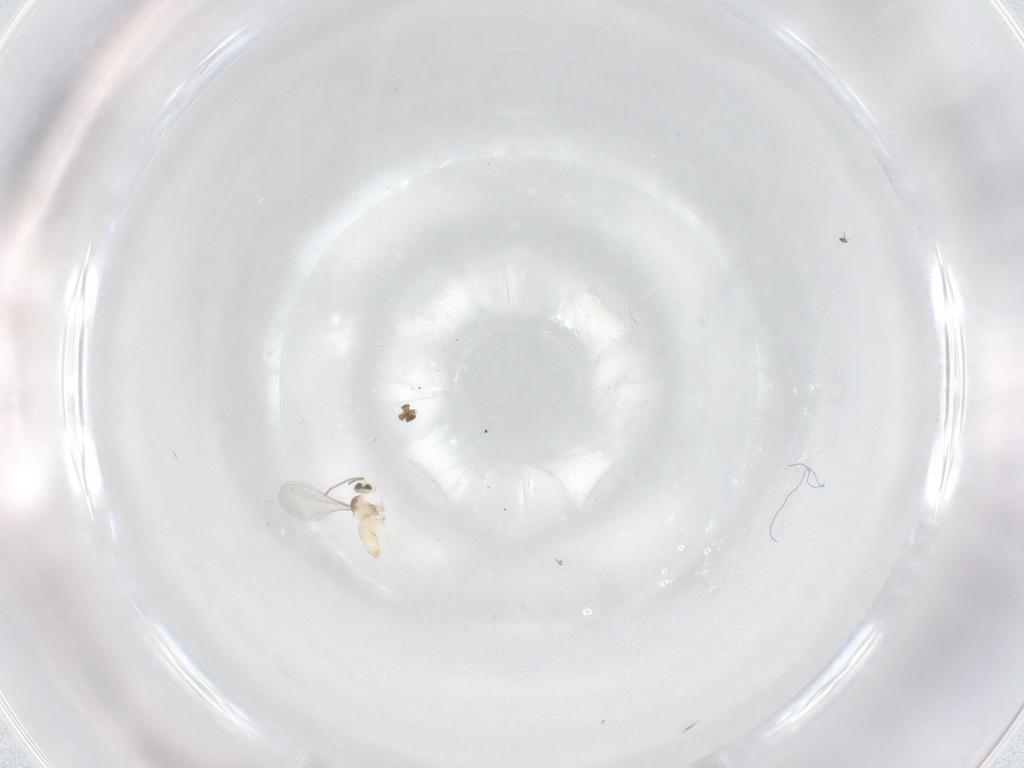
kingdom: Animalia
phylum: Arthropoda
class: Insecta
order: Diptera
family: Cecidomyiidae
